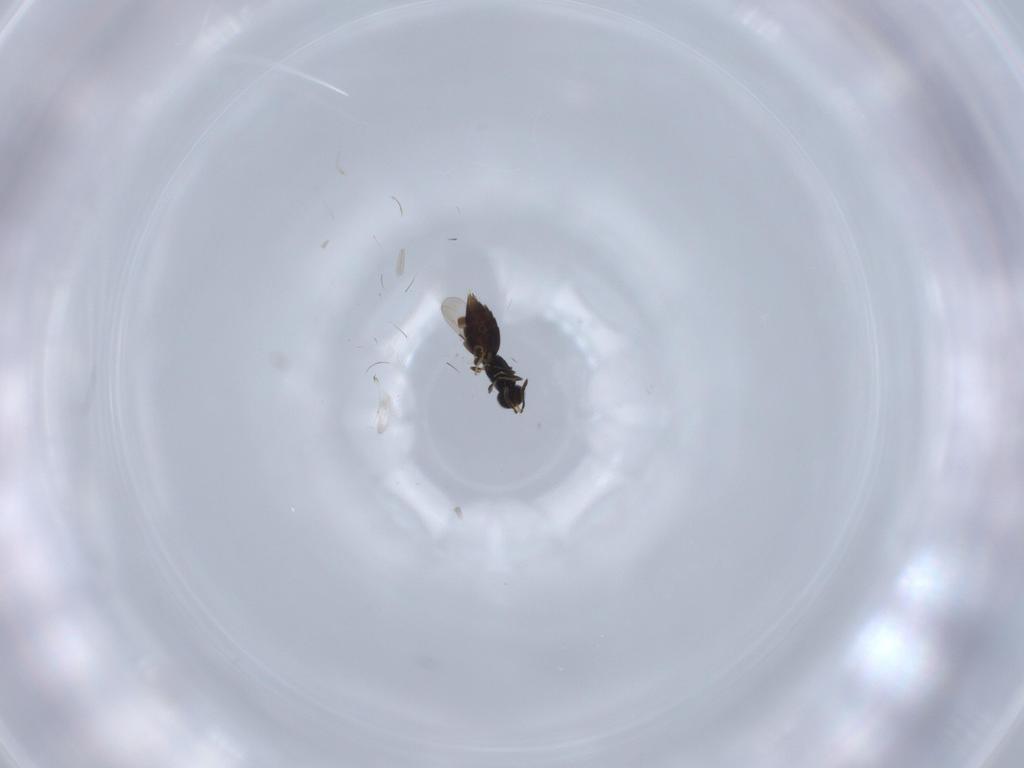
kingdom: Animalia
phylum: Arthropoda
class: Insecta
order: Hymenoptera
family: Ceraphronidae
